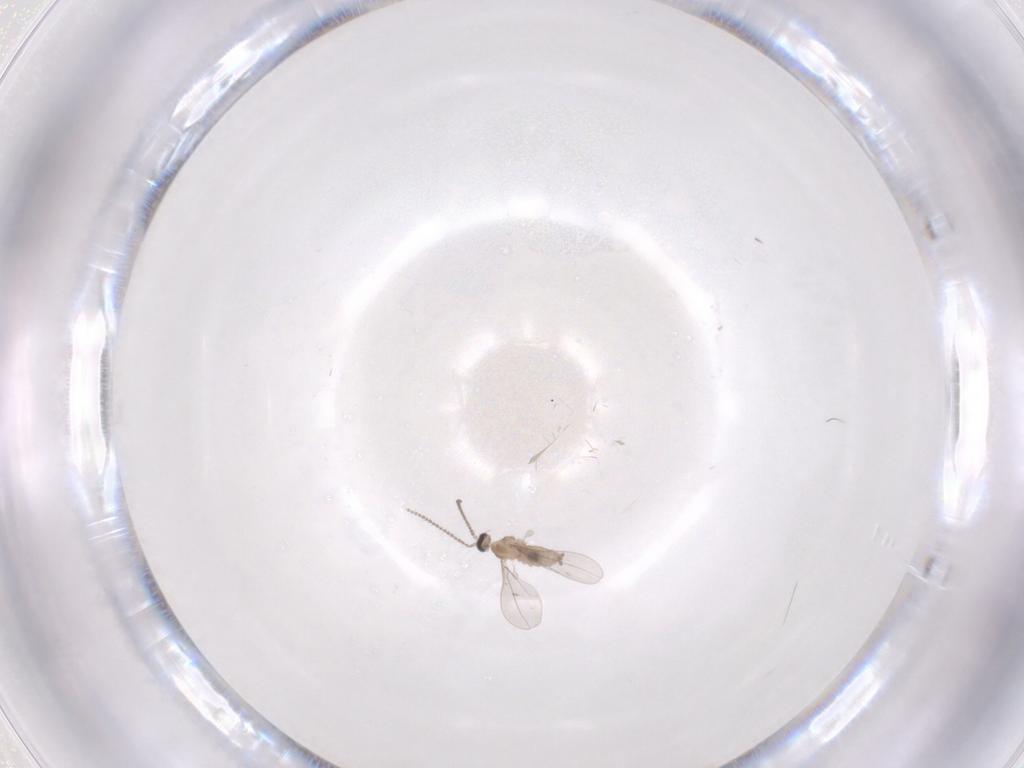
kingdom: Animalia
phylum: Arthropoda
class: Insecta
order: Diptera
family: Cecidomyiidae
